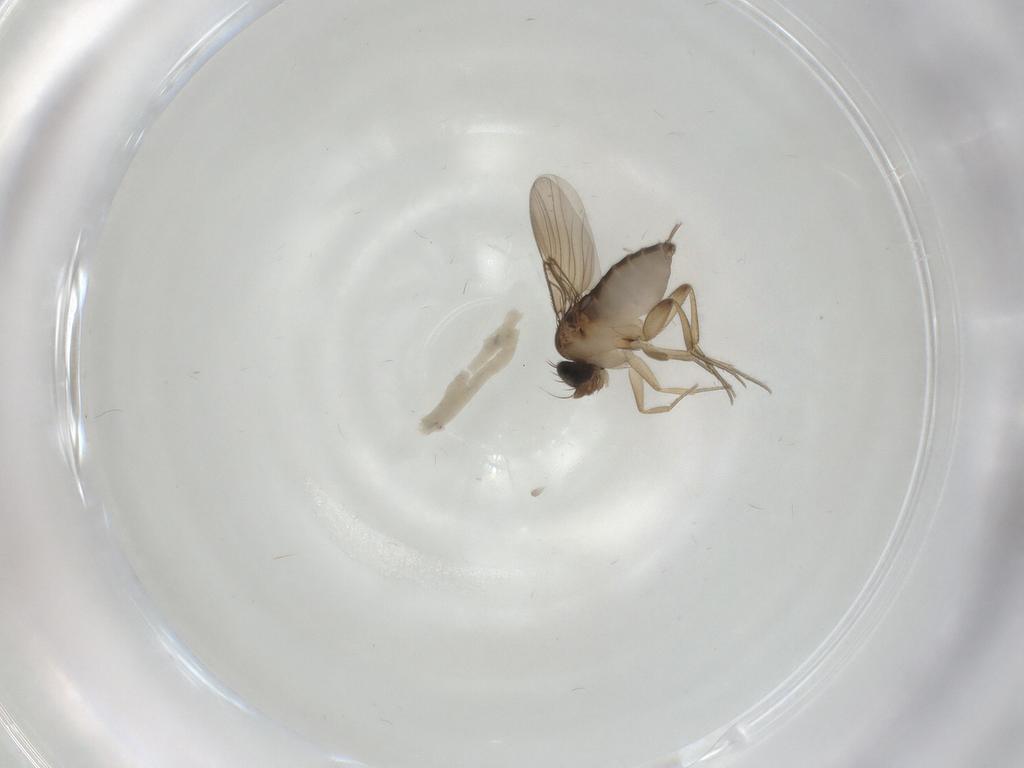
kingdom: Animalia
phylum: Arthropoda
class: Insecta
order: Diptera
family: Phoridae
